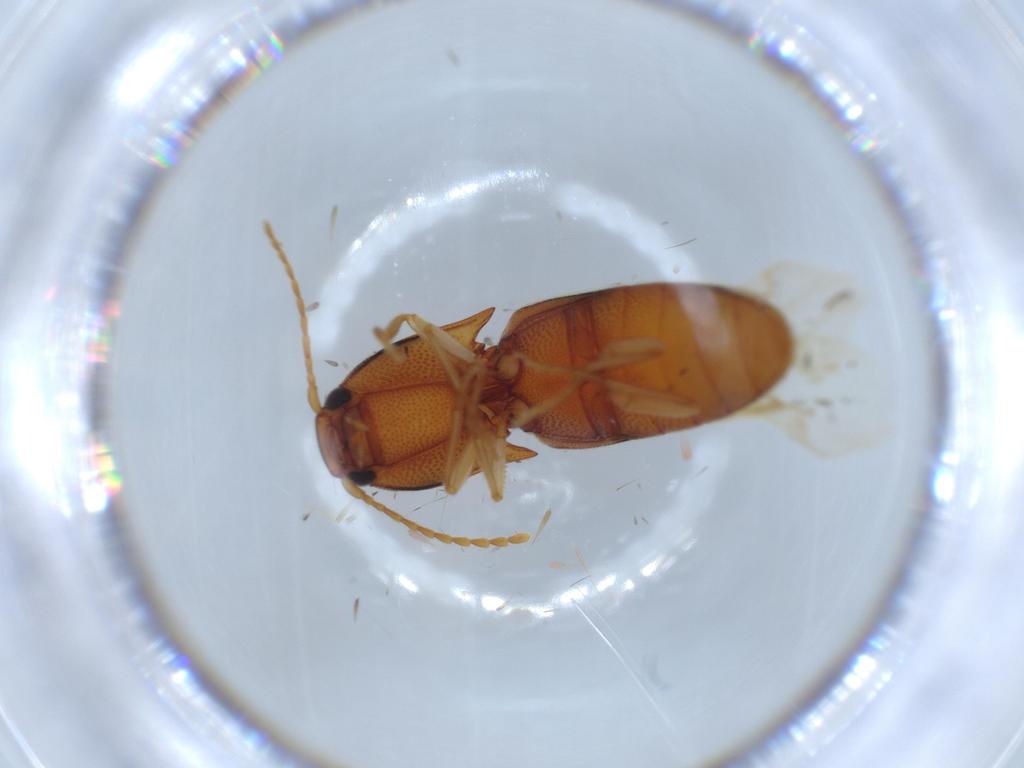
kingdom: Animalia
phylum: Arthropoda
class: Insecta
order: Coleoptera
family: Elateridae
